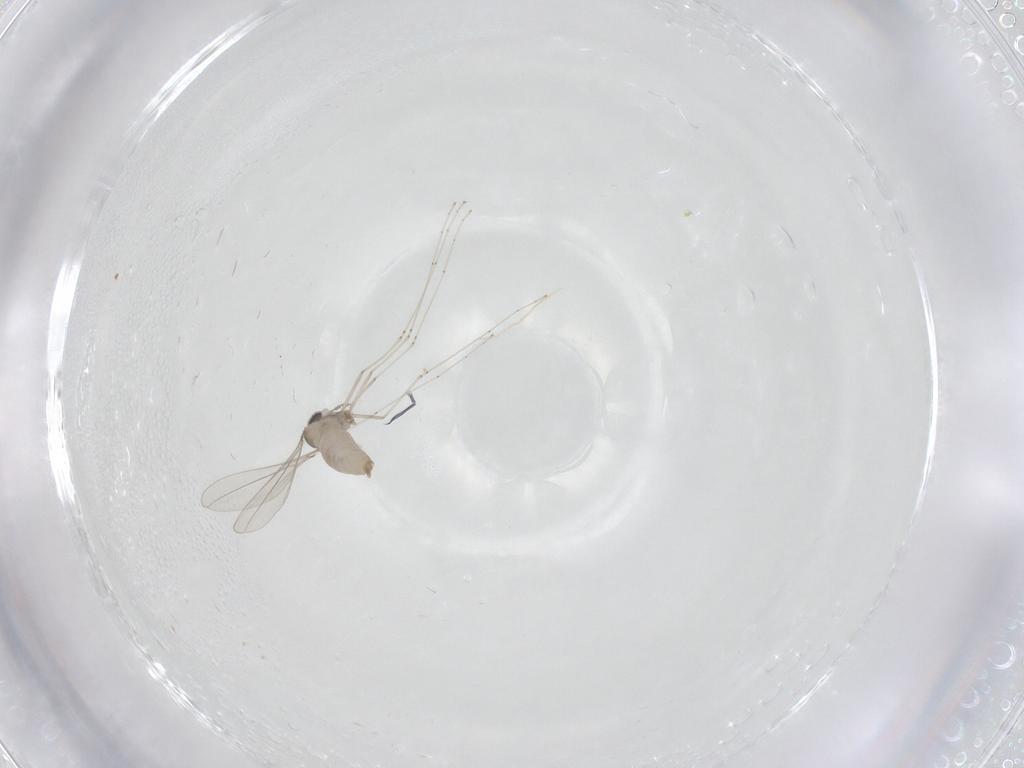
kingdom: Animalia
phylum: Arthropoda
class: Insecta
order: Diptera
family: Cecidomyiidae
